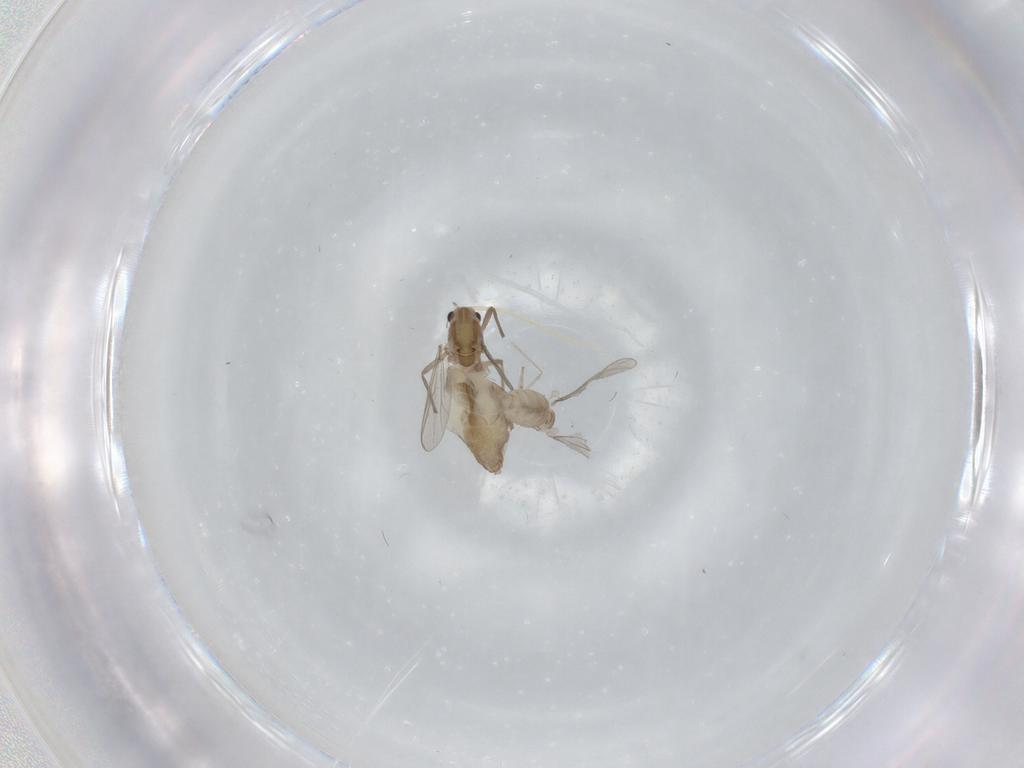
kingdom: Animalia
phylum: Arthropoda
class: Insecta
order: Diptera
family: Chironomidae
